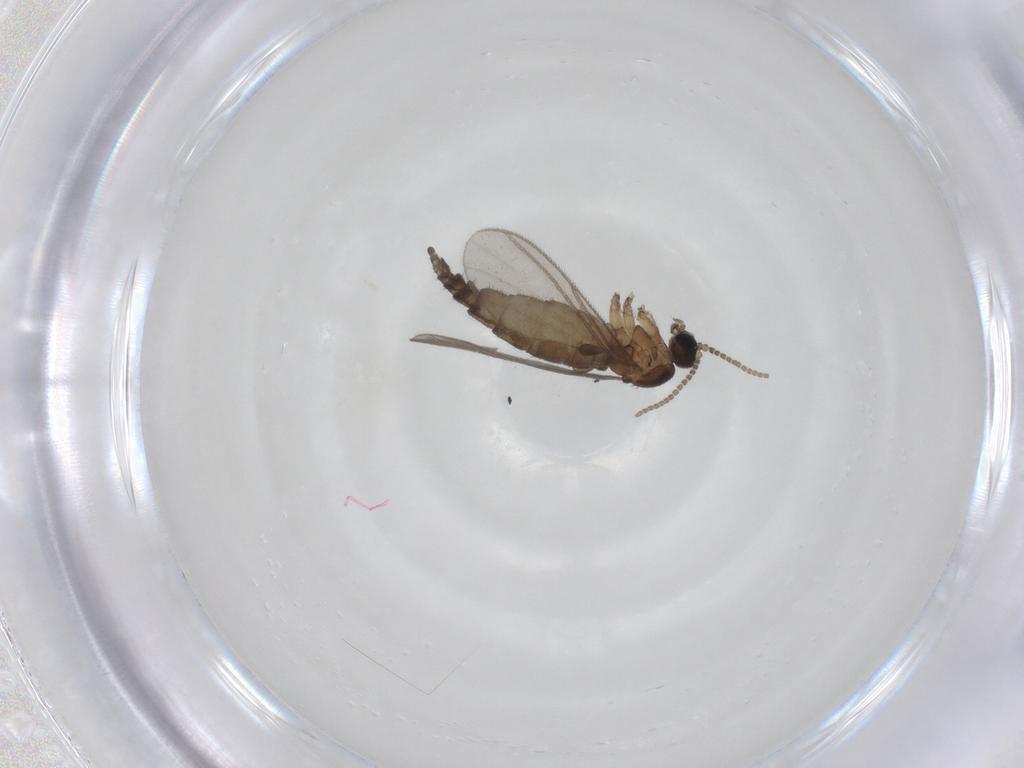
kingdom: Animalia
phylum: Arthropoda
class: Insecta
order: Diptera
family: Sciaridae
